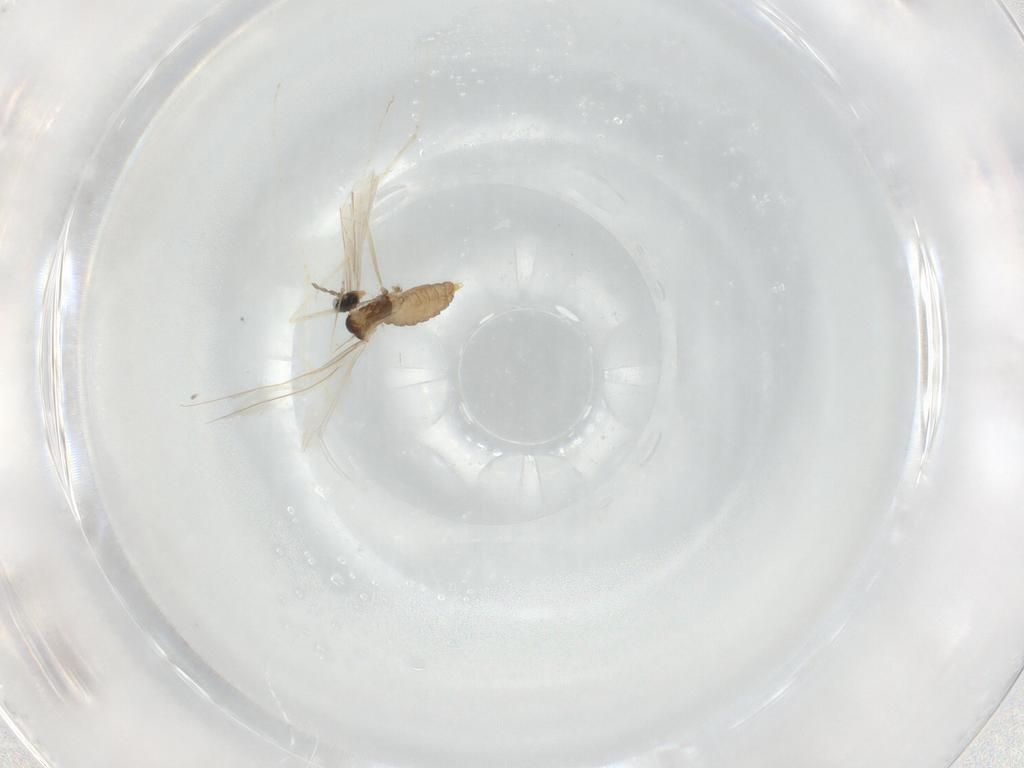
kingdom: Animalia
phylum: Arthropoda
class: Insecta
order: Diptera
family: Cecidomyiidae
